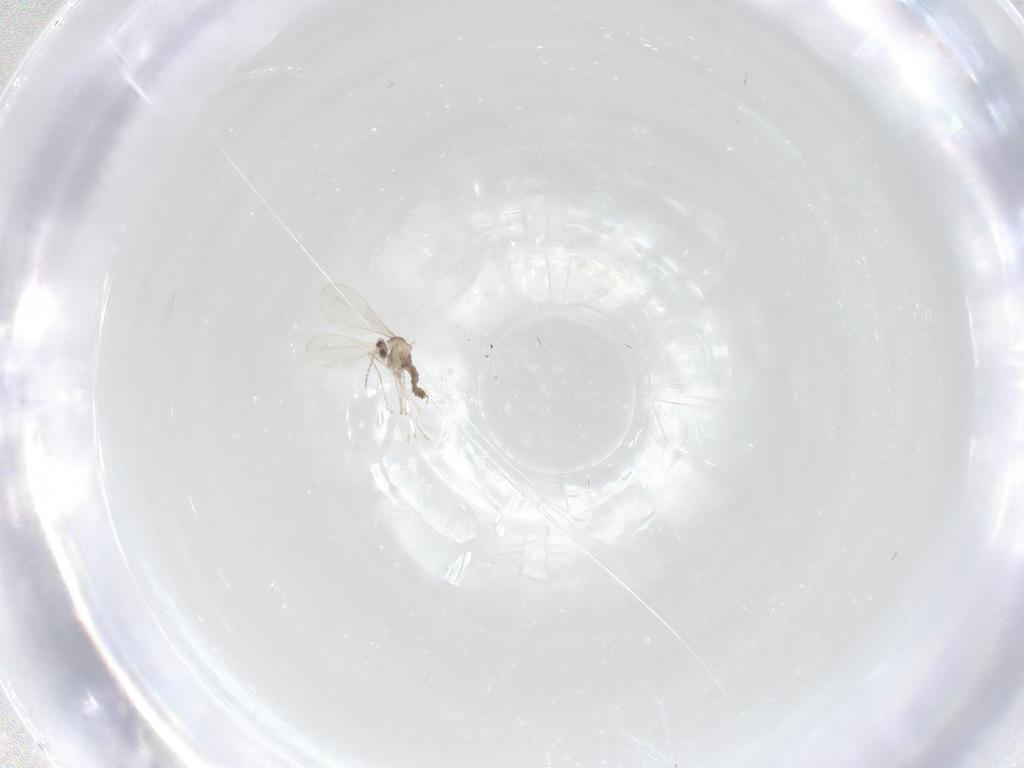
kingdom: Animalia
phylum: Arthropoda
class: Insecta
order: Diptera
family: Cecidomyiidae
